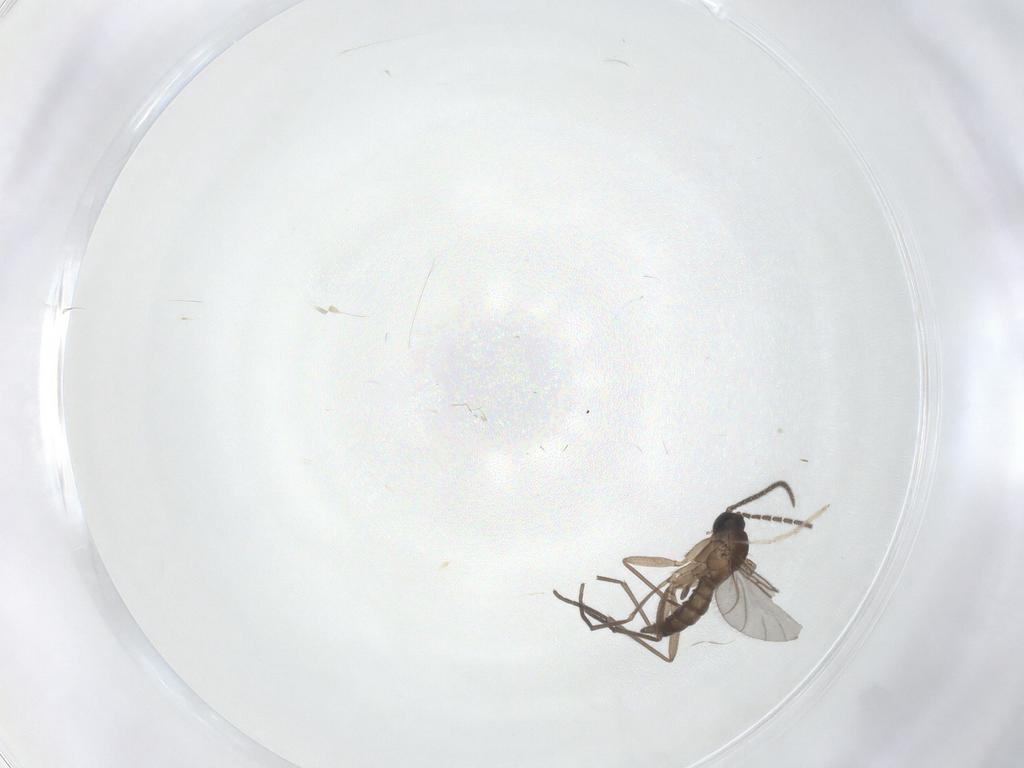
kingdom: Animalia
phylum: Arthropoda
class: Insecta
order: Diptera
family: Sciaridae
